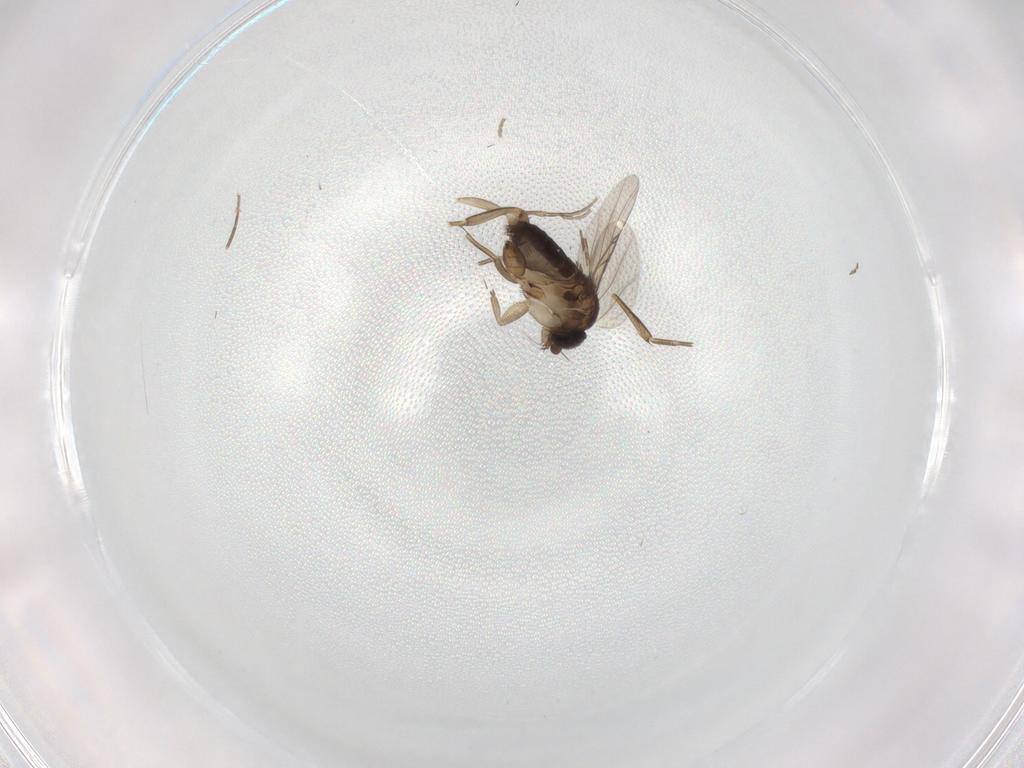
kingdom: Animalia
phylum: Arthropoda
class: Insecta
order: Diptera
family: Phoridae
